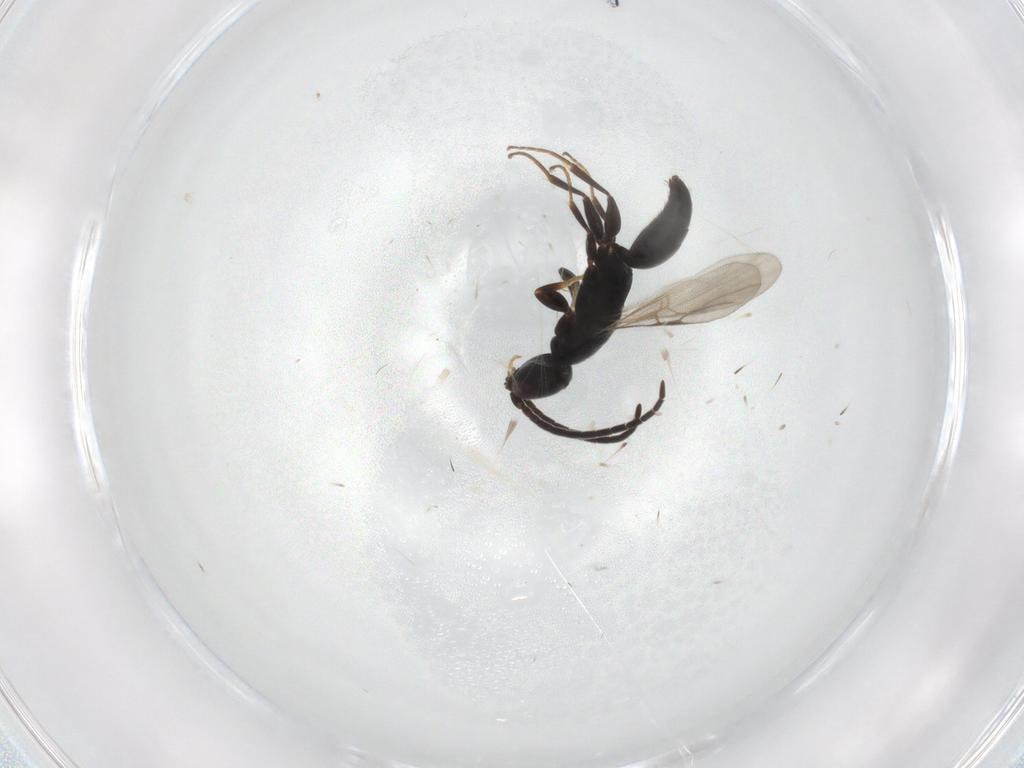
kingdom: Animalia
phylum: Arthropoda
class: Insecta
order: Hymenoptera
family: Bethylidae
